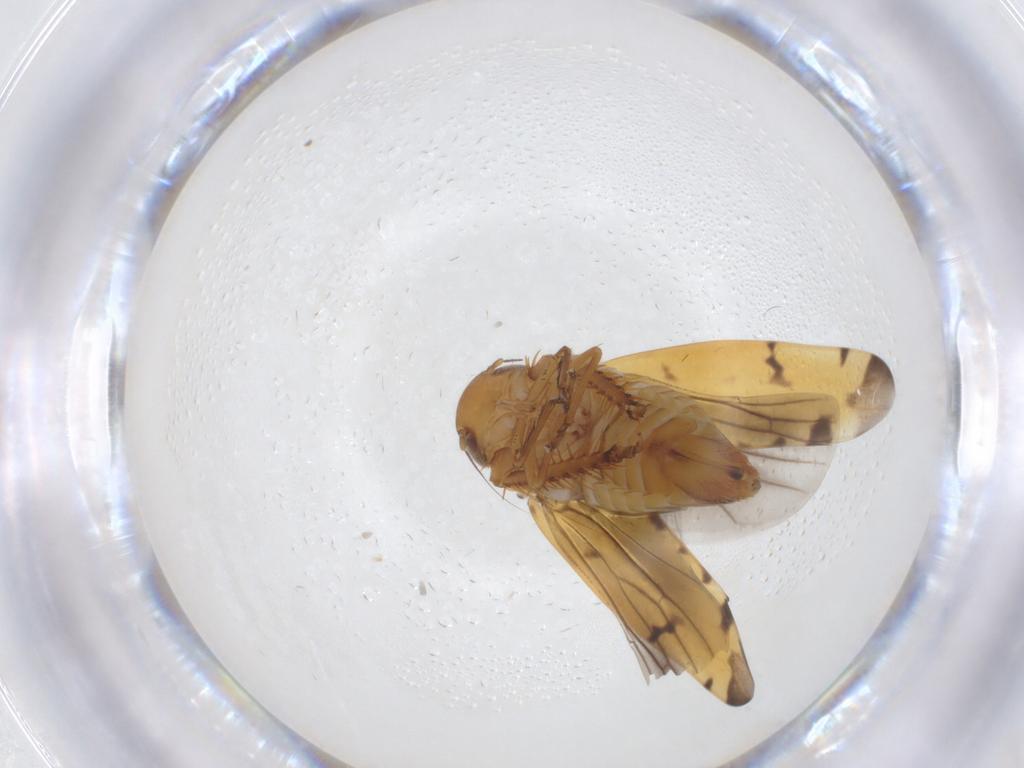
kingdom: Animalia
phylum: Arthropoda
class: Insecta
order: Hemiptera
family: Cicadellidae
